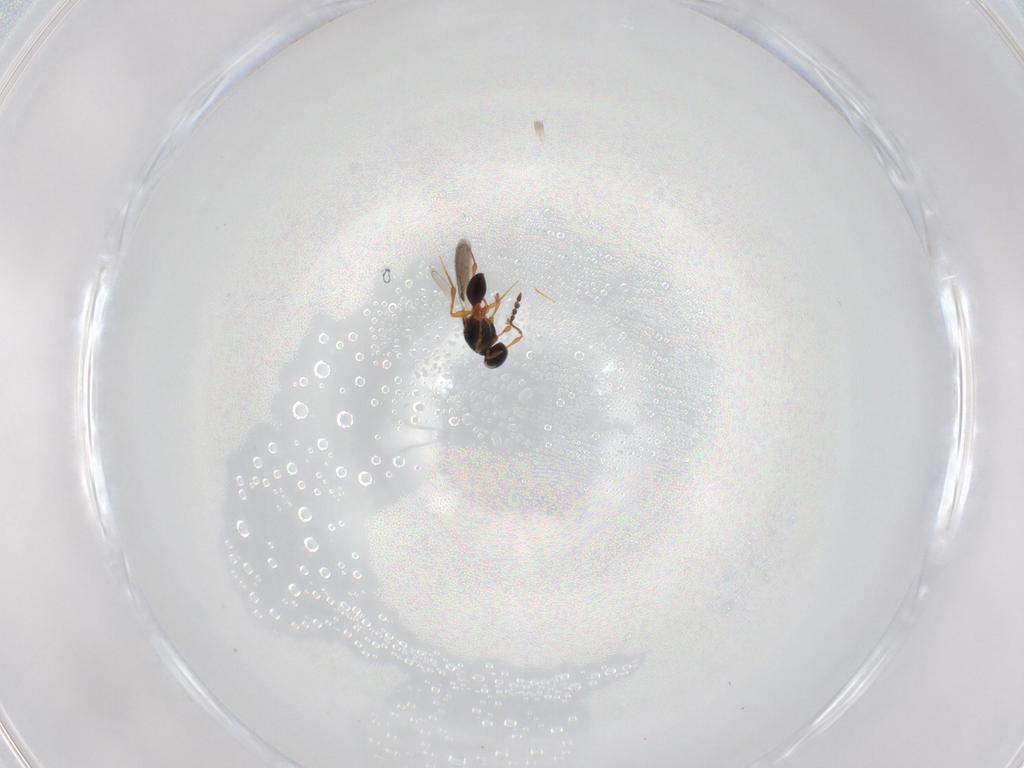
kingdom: Animalia
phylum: Arthropoda
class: Insecta
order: Hymenoptera
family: Platygastridae
